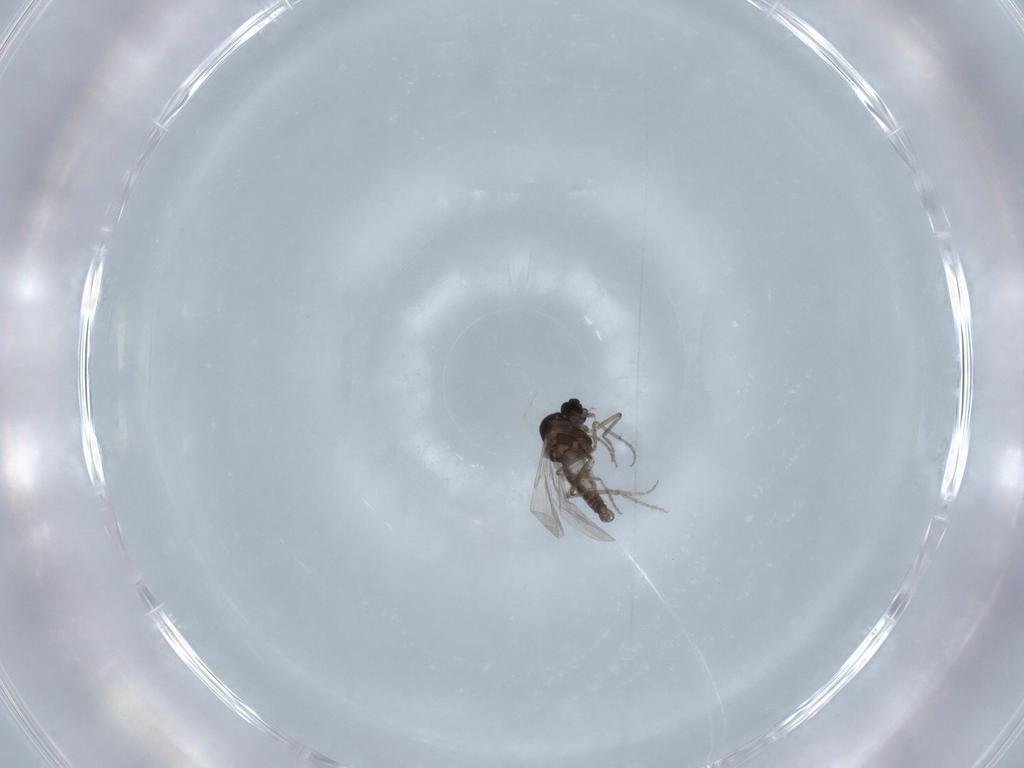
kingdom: Animalia
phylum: Arthropoda
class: Insecta
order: Diptera
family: Ceratopogonidae
